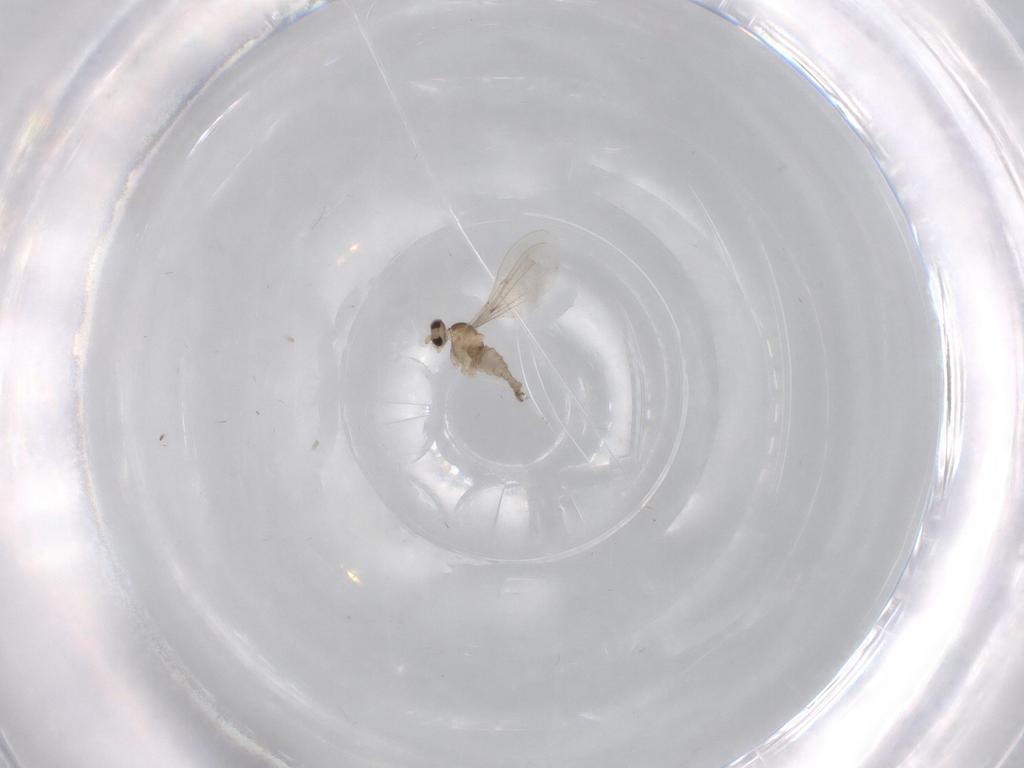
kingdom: Animalia
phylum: Arthropoda
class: Insecta
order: Diptera
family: Cecidomyiidae
